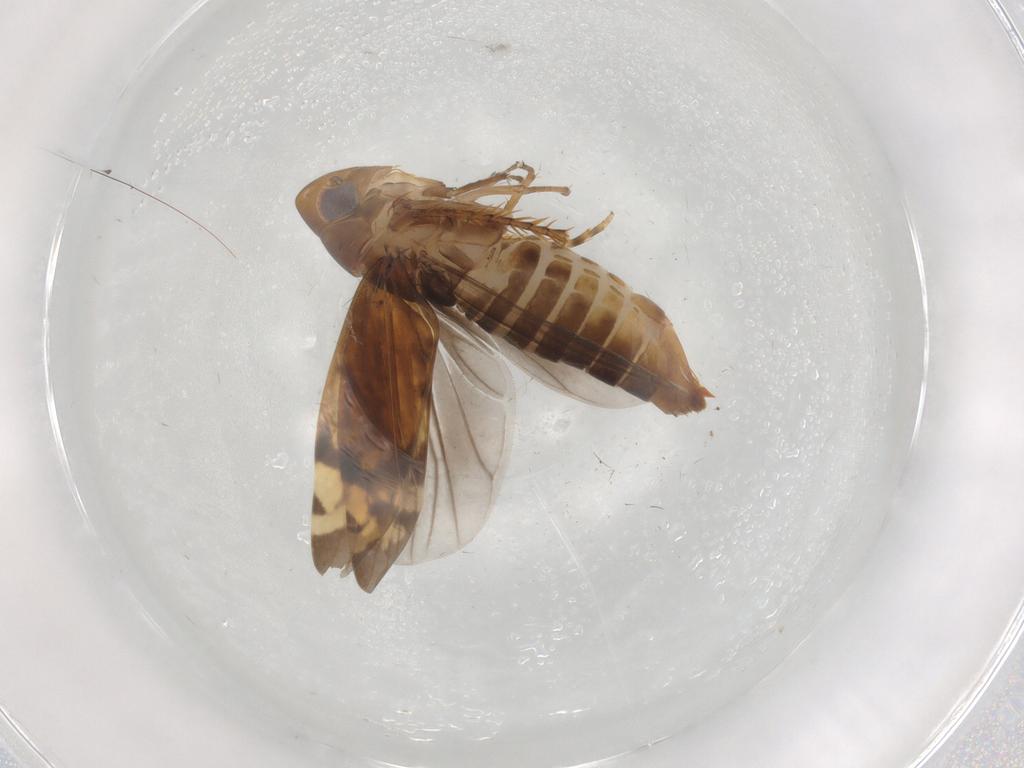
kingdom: Animalia
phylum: Arthropoda
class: Insecta
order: Hemiptera
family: Cicadellidae
